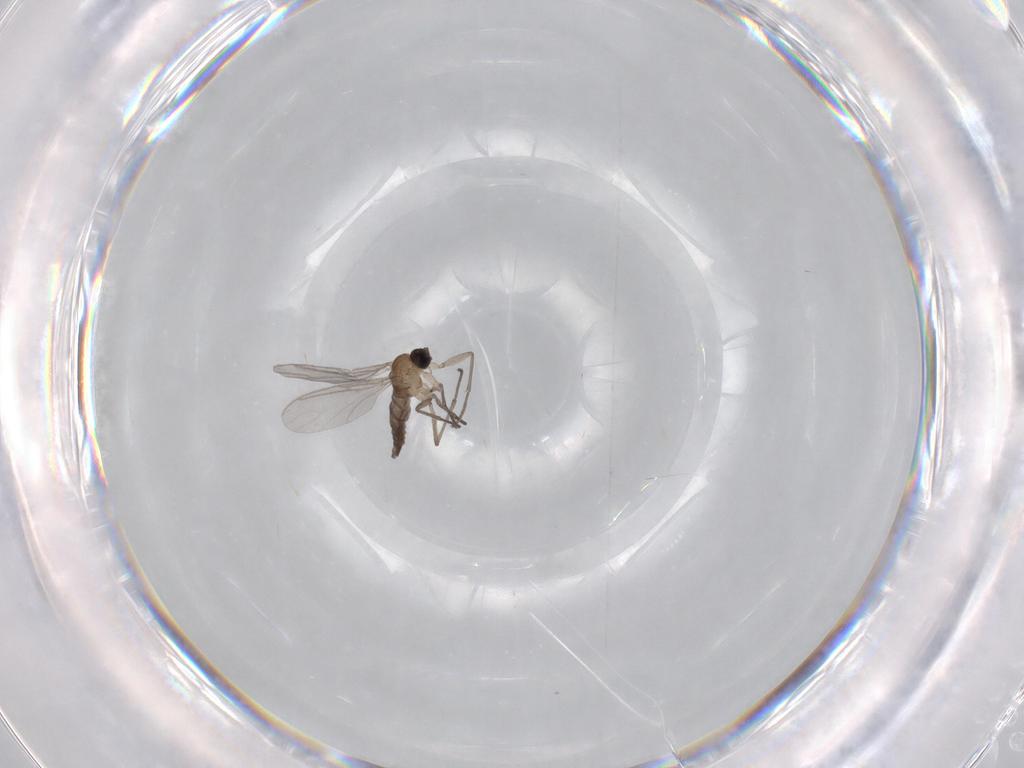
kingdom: Animalia
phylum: Arthropoda
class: Insecta
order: Diptera
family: Sciaridae
